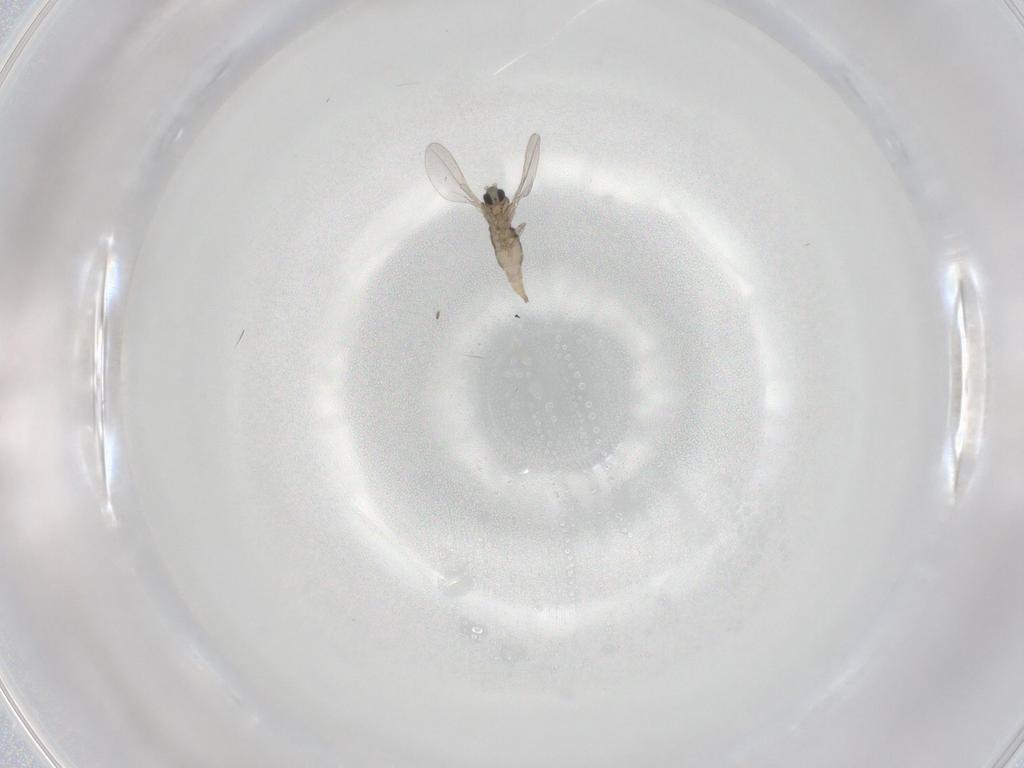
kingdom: Animalia
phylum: Arthropoda
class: Insecta
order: Diptera
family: Cecidomyiidae
